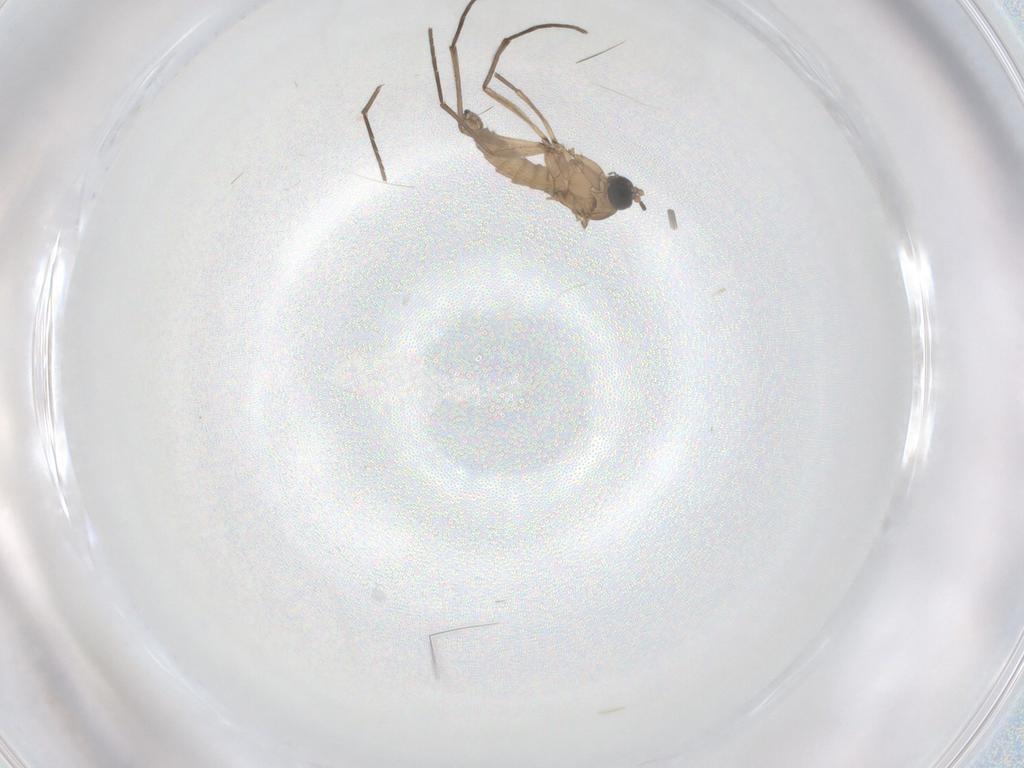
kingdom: Animalia
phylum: Arthropoda
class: Insecta
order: Diptera
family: Sciaridae
